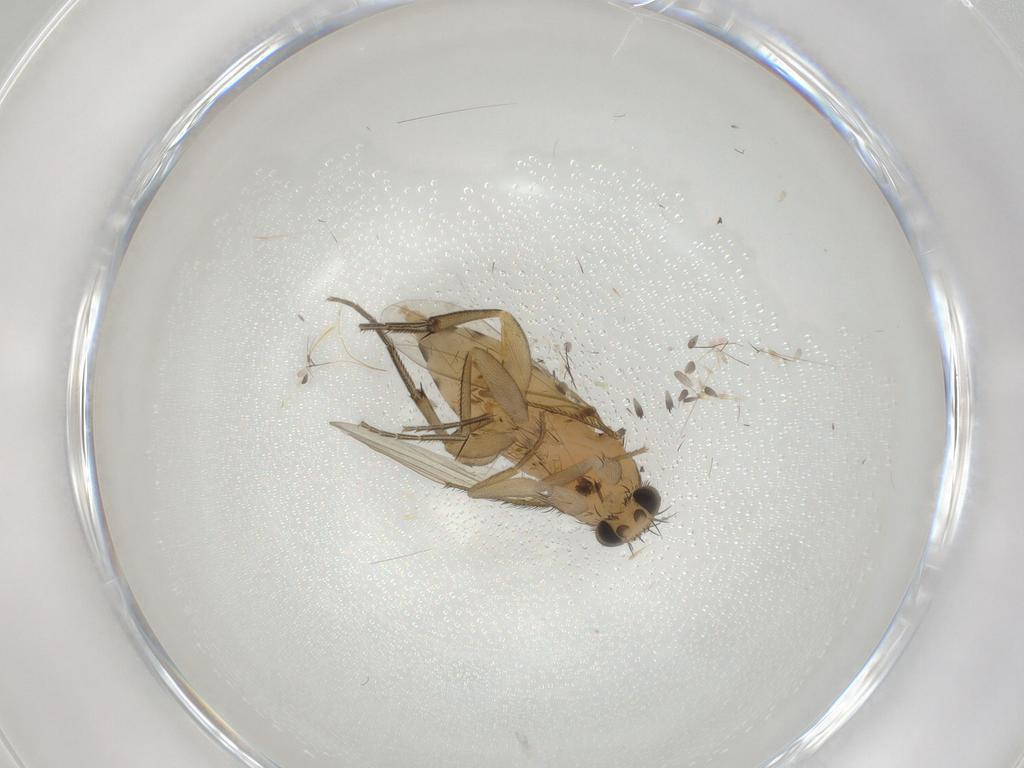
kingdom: Animalia
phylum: Arthropoda
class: Insecta
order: Diptera
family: Phoridae
